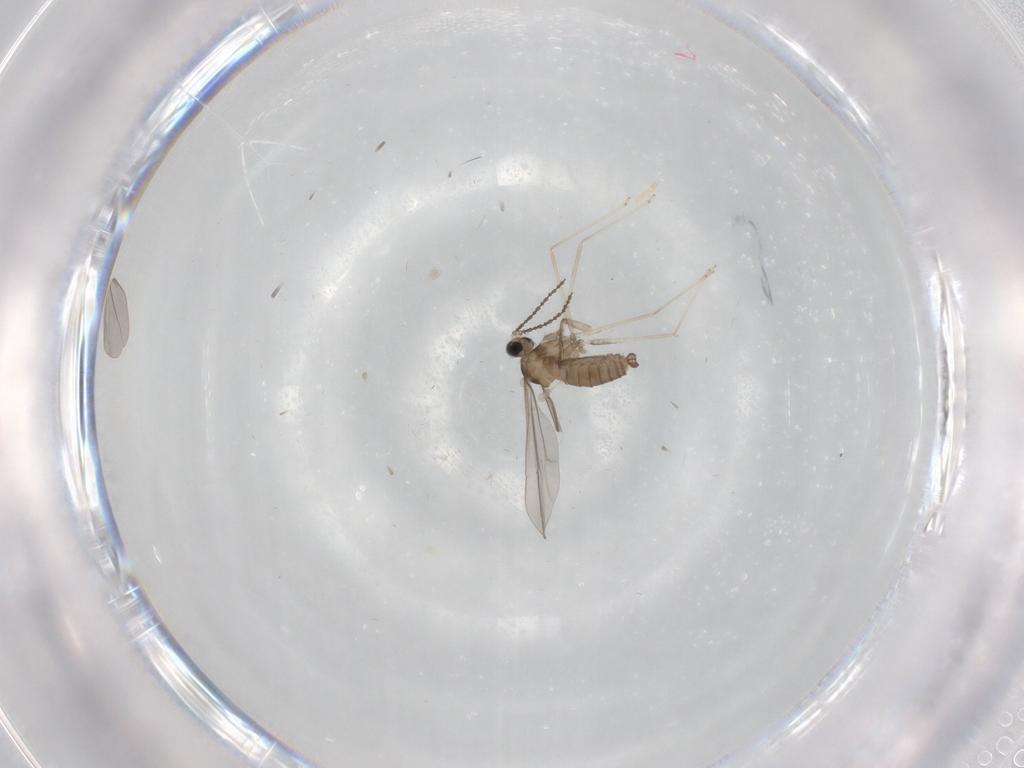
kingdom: Animalia
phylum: Arthropoda
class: Insecta
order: Diptera
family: Cecidomyiidae
